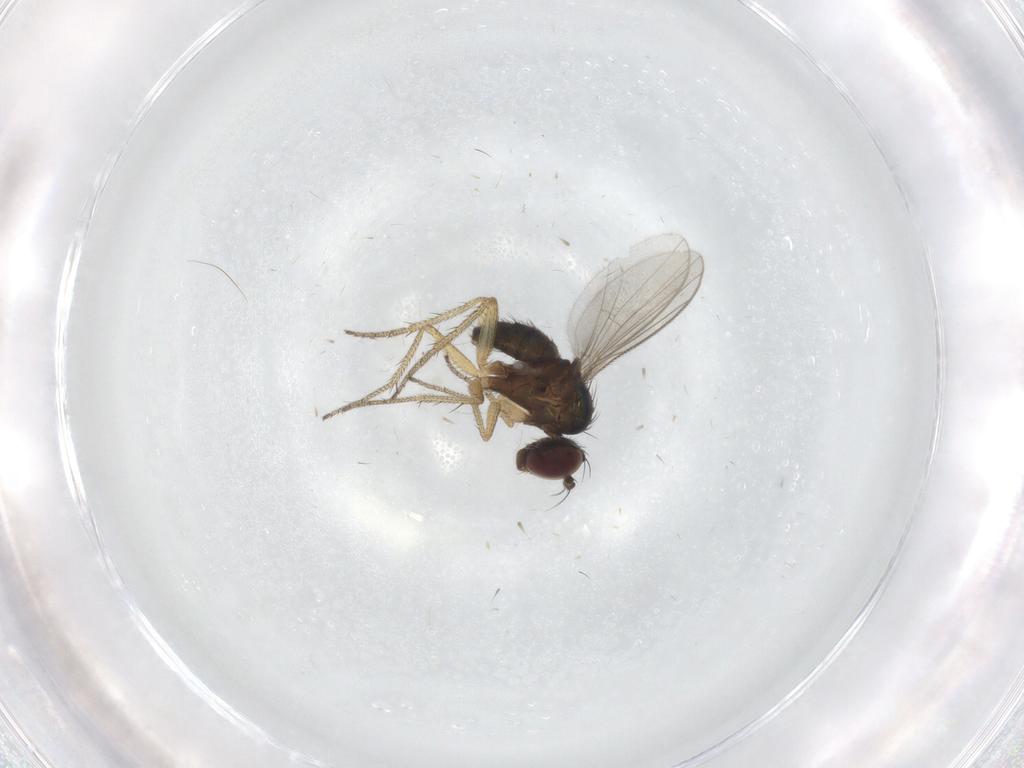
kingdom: Animalia
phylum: Arthropoda
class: Insecta
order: Diptera
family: Dolichopodidae
